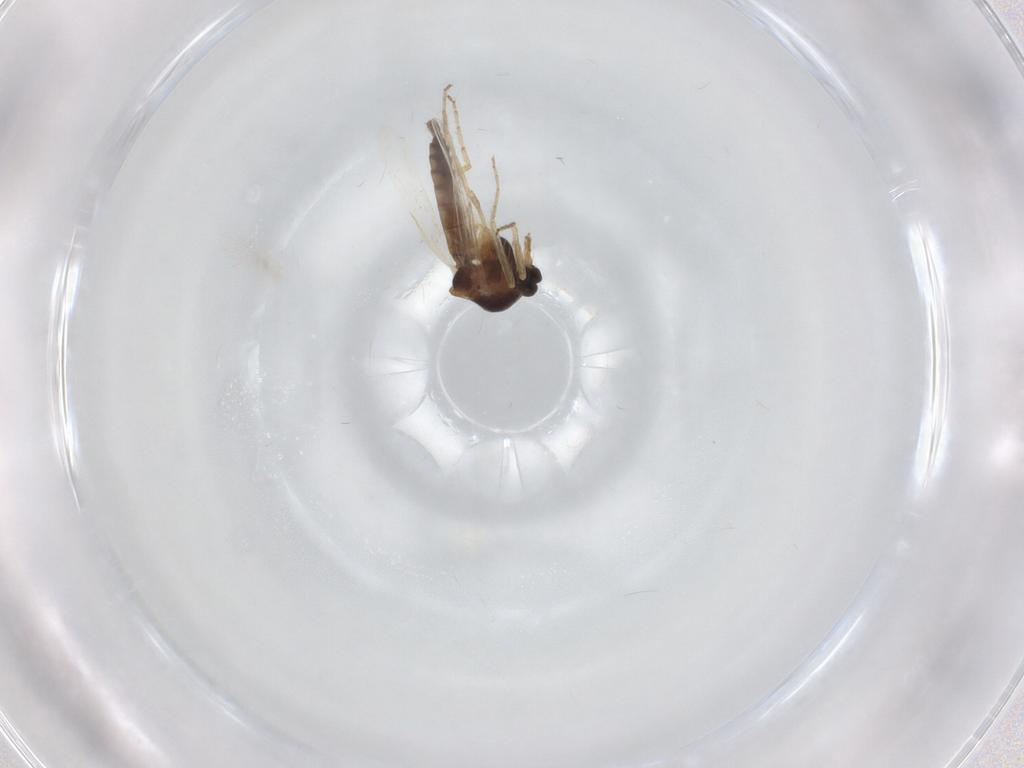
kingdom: Animalia
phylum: Arthropoda
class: Insecta
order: Diptera
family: Ceratopogonidae
